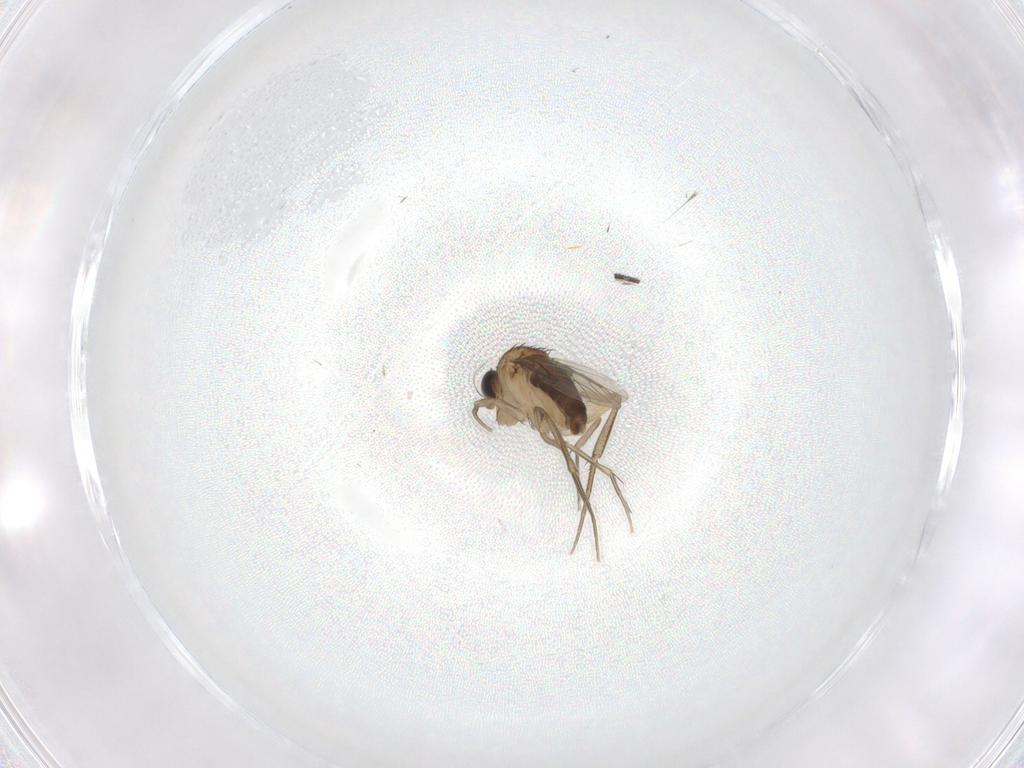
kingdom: Animalia
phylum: Arthropoda
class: Insecta
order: Diptera
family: Phoridae
